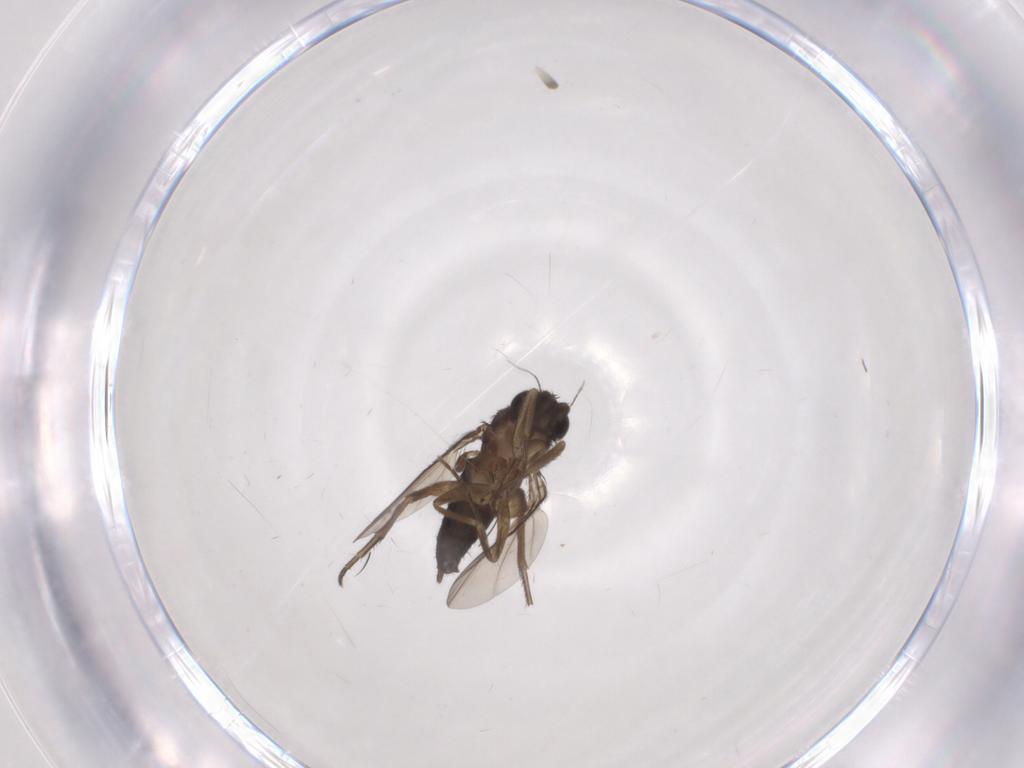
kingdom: Animalia
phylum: Arthropoda
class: Insecta
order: Diptera
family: Phoridae
